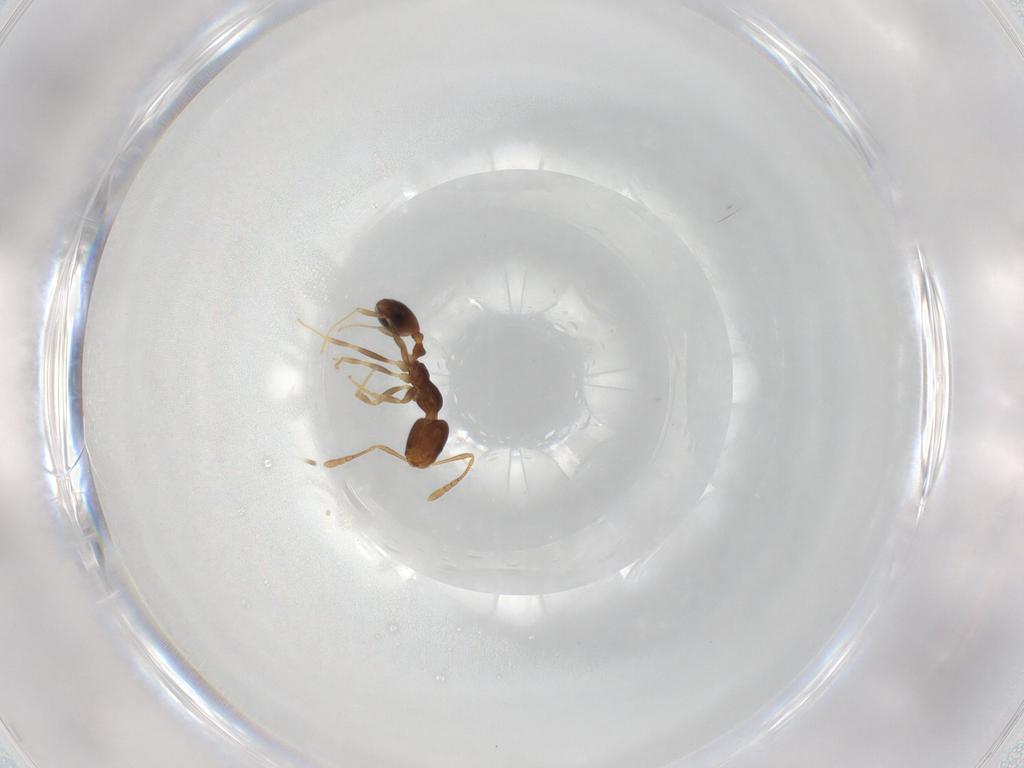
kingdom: Animalia
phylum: Arthropoda
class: Insecta
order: Hymenoptera
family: Formicidae
